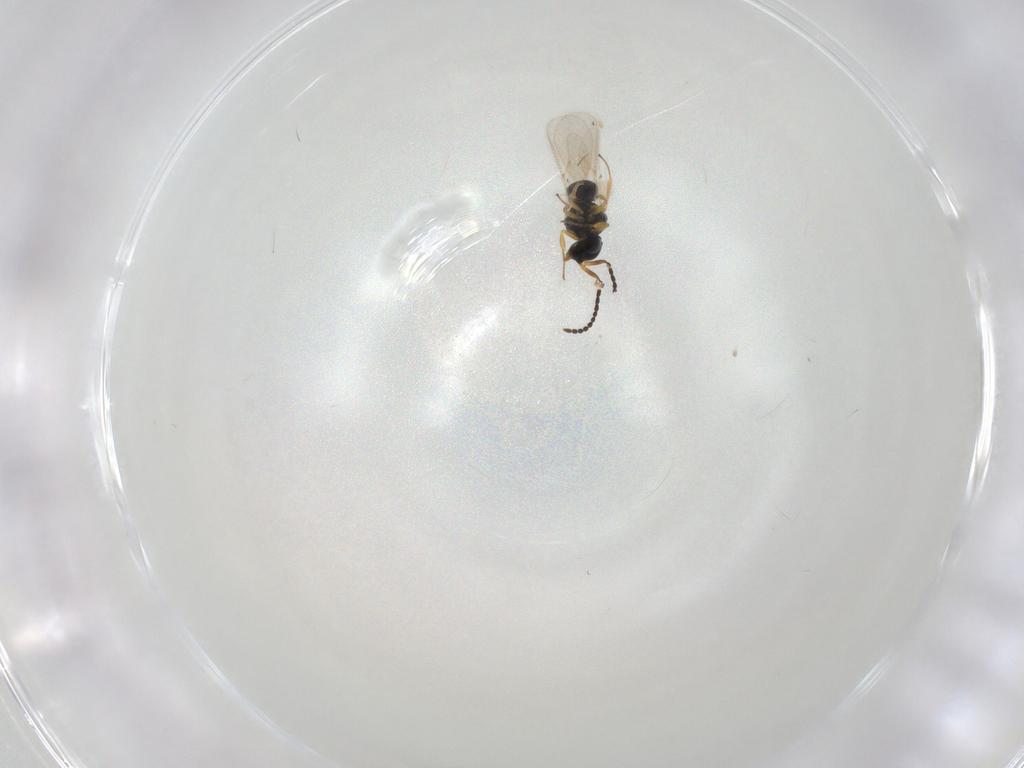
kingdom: Animalia
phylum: Arthropoda
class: Insecta
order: Hymenoptera
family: Scelionidae
